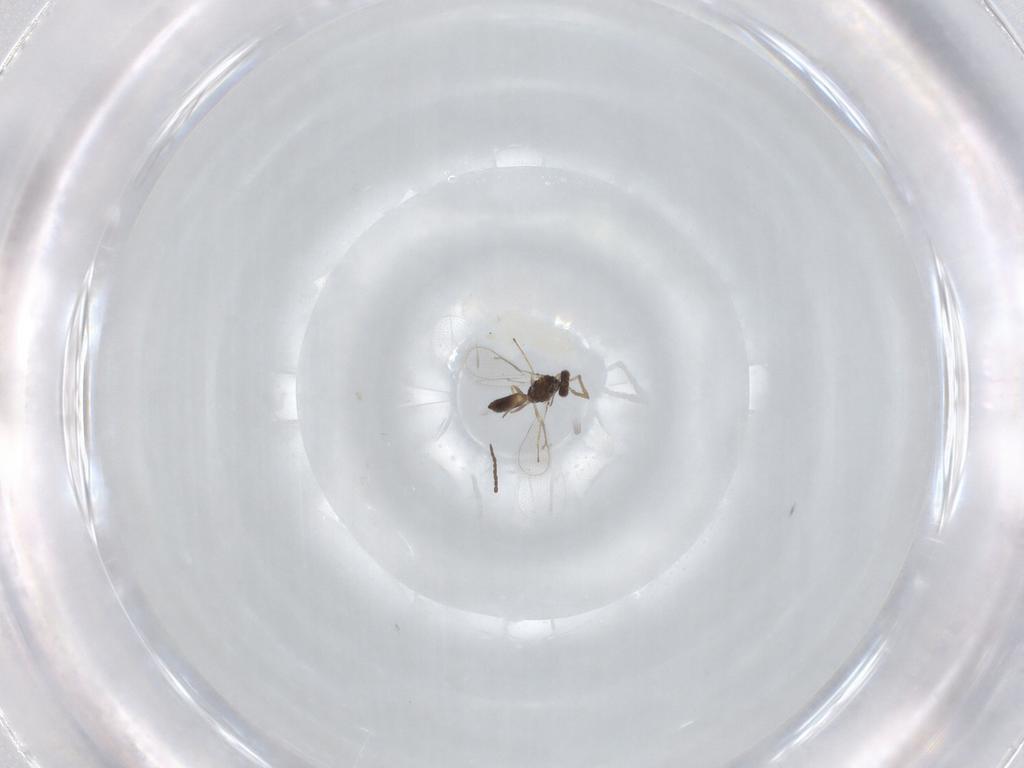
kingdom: Animalia
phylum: Arthropoda
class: Insecta
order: Hymenoptera
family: Eulophidae
